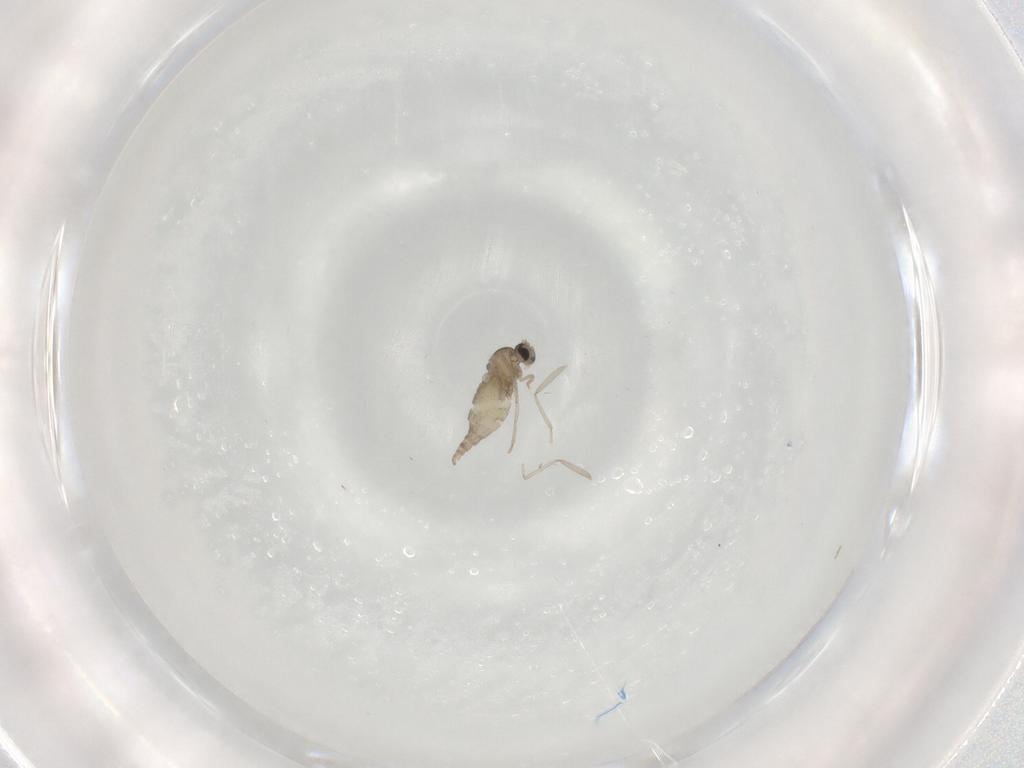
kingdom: Animalia
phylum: Arthropoda
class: Insecta
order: Diptera
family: Cecidomyiidae
